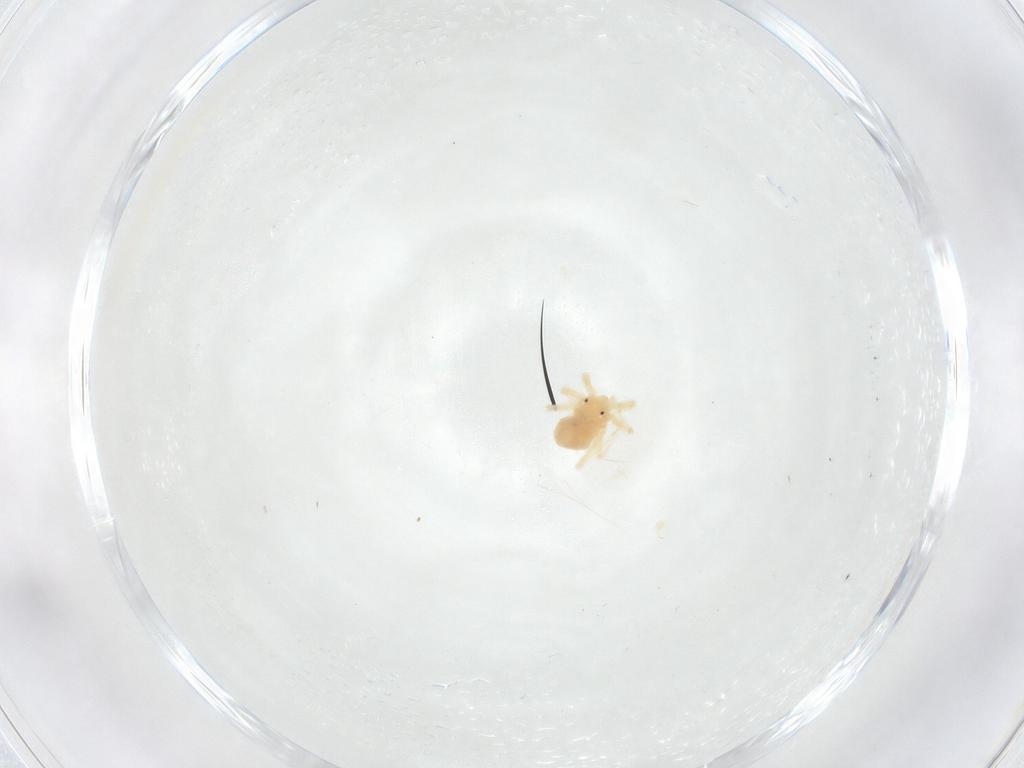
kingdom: Animalia
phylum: Arthropoda
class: Arachnida
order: Trombidiformes
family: Anystidae
